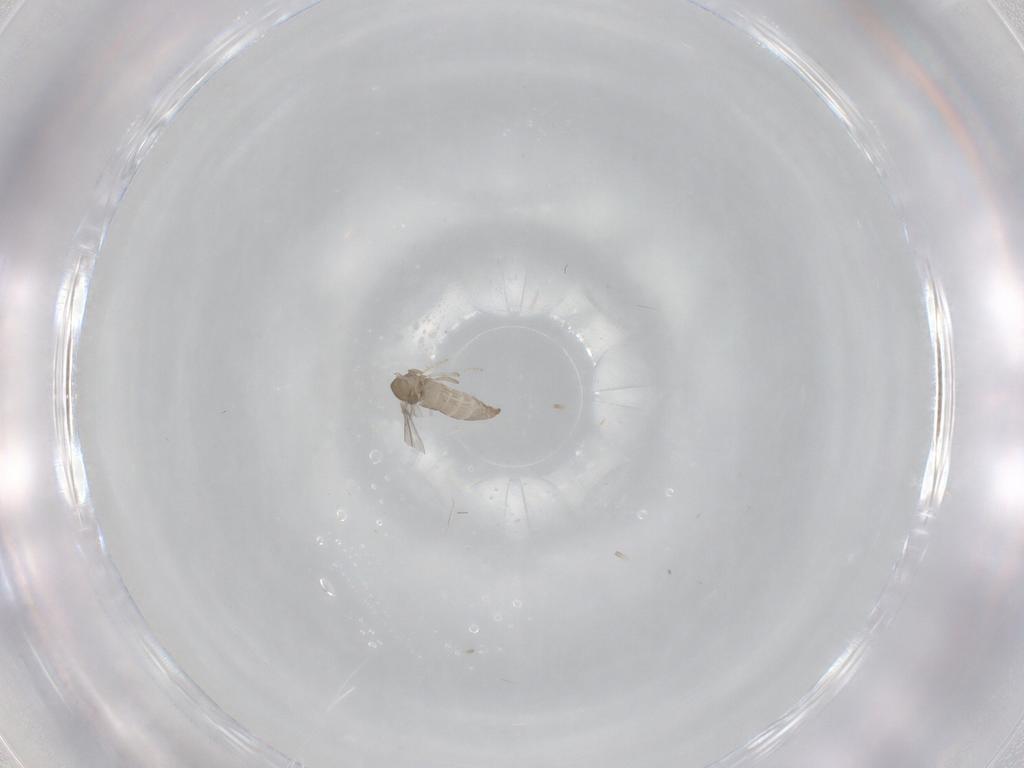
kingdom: Animalia
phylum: Arthropoda
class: Insecta
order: Diptera
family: Cecidomyiidae
